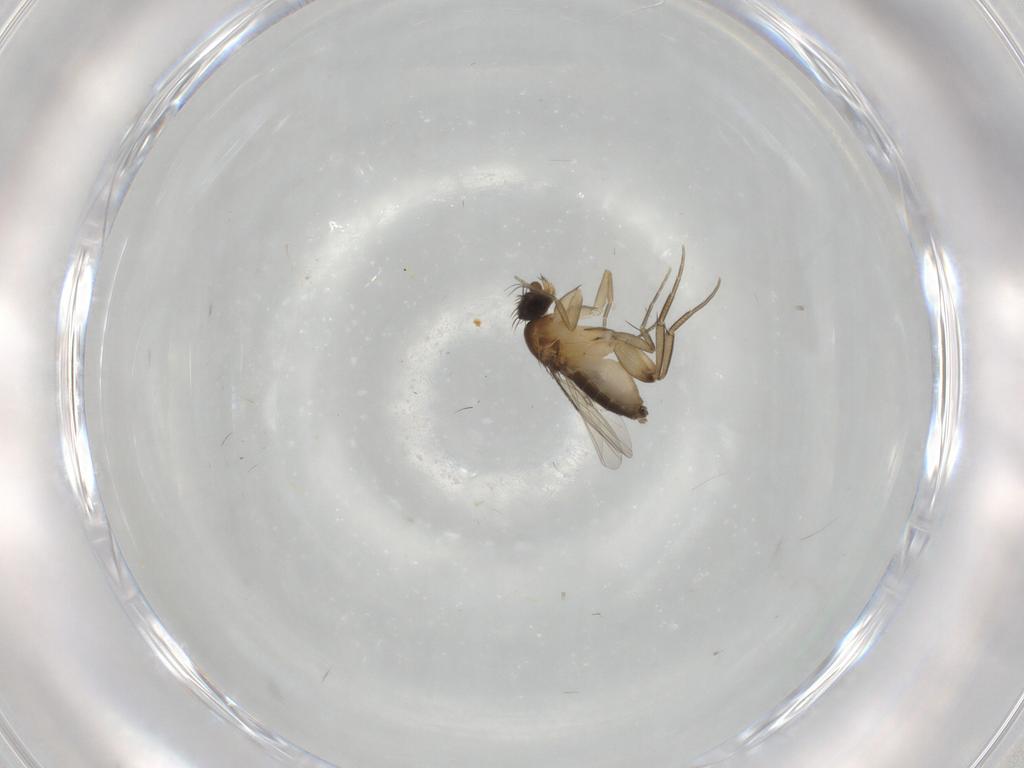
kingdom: Animalia
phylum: Arthropoda
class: Insecta
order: Diptera
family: Phoridae
